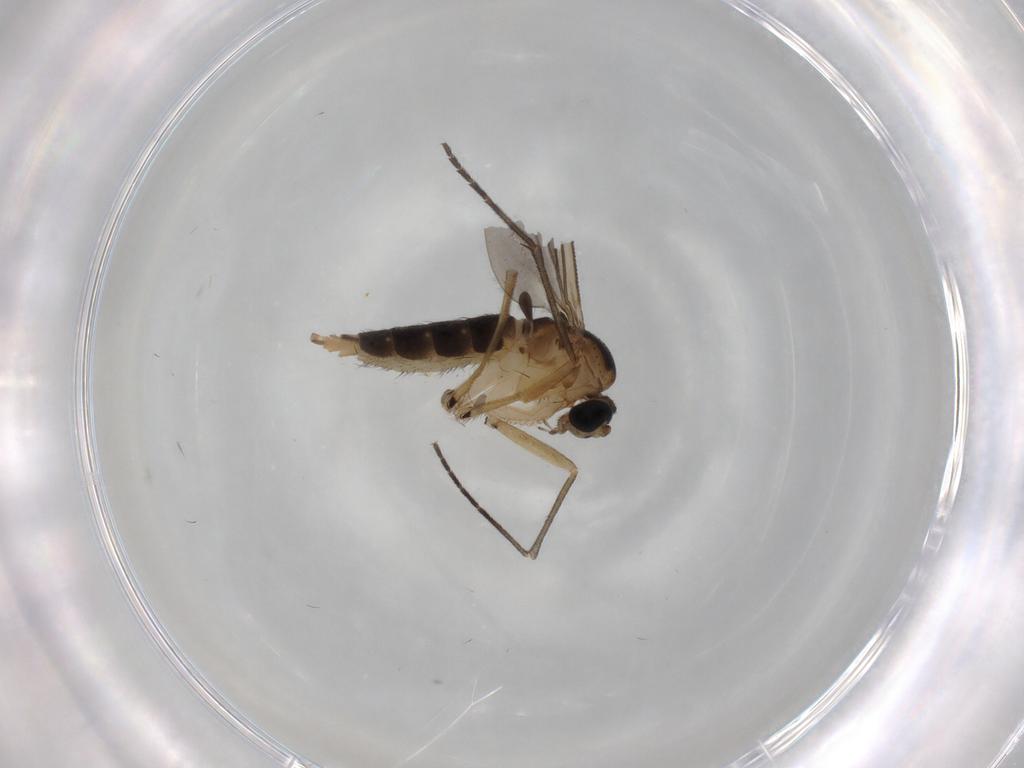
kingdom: Animalia
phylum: Arthropoda
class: Insecta
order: Diptera
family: Sciaridae
